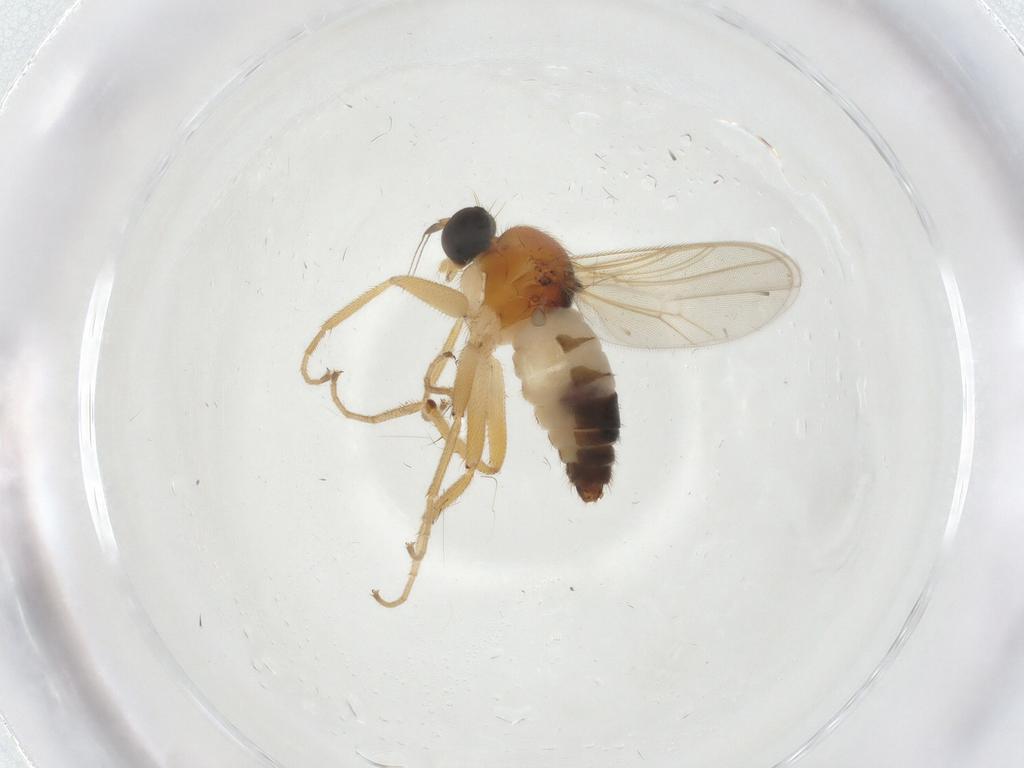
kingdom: Animalia
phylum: Arthropoda
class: Insecta
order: Diptera
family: Hybotidae
